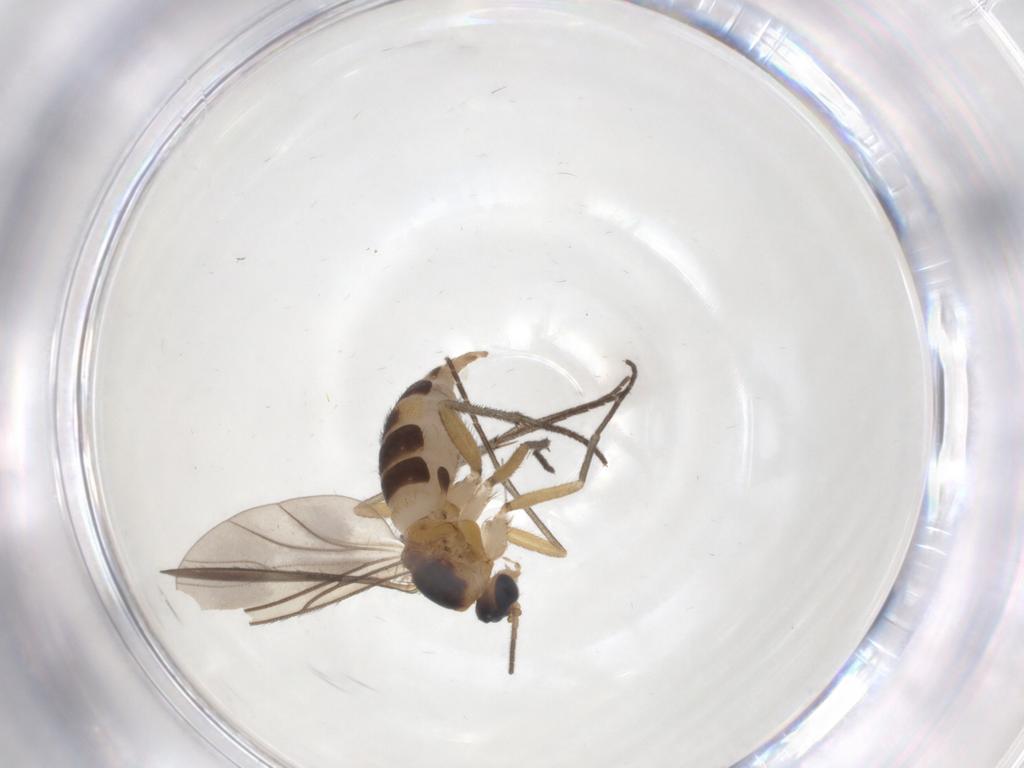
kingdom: Animalia
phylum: Arthropoda
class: Insecta
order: Diptera
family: Sciaridae
